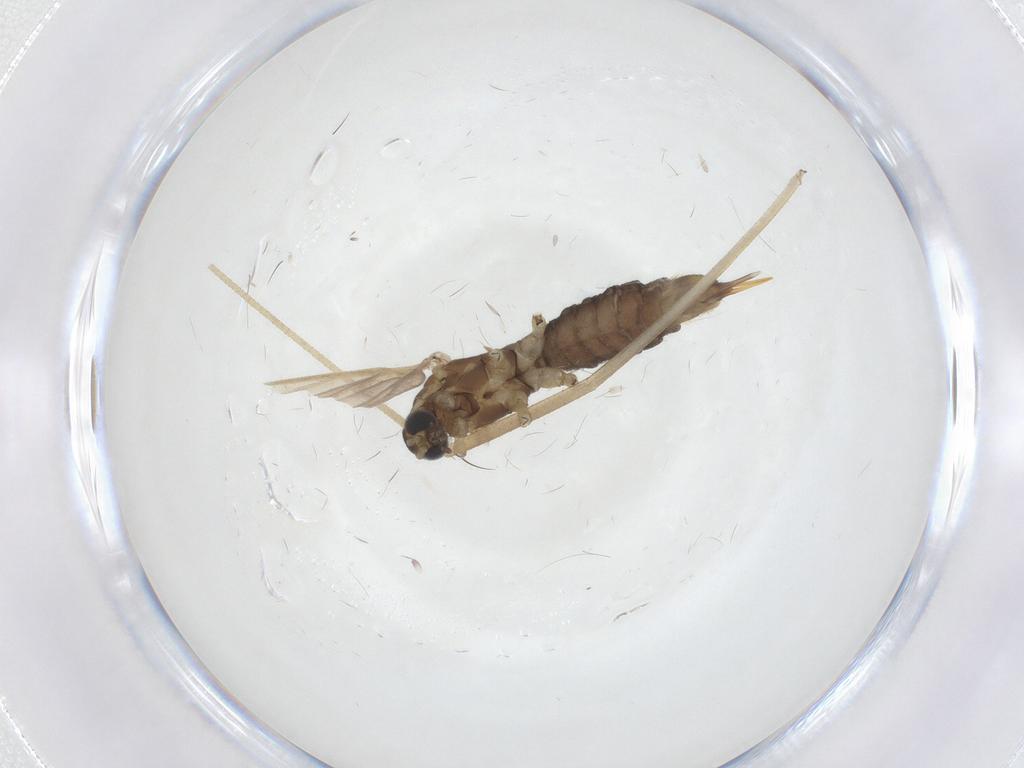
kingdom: Animalia
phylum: Arthropoda
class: Insecta
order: Diptera
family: Limoniidae
